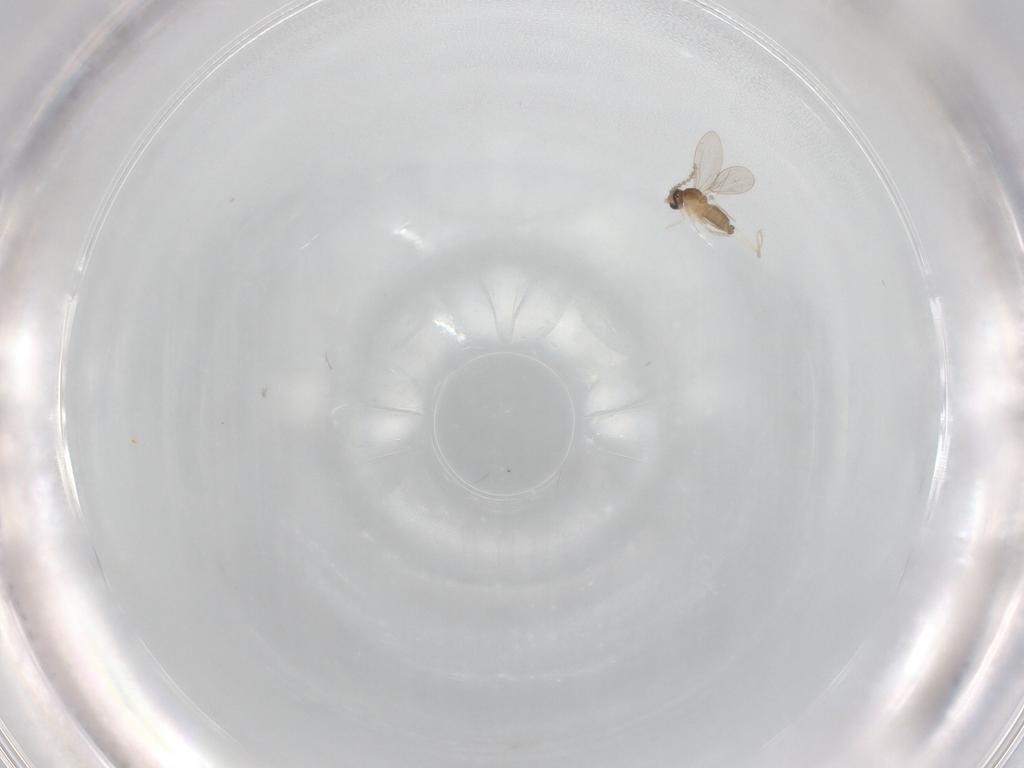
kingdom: Animalia
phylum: Arthropoda
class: Insecta
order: Diptera
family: Cecidomyiidae
